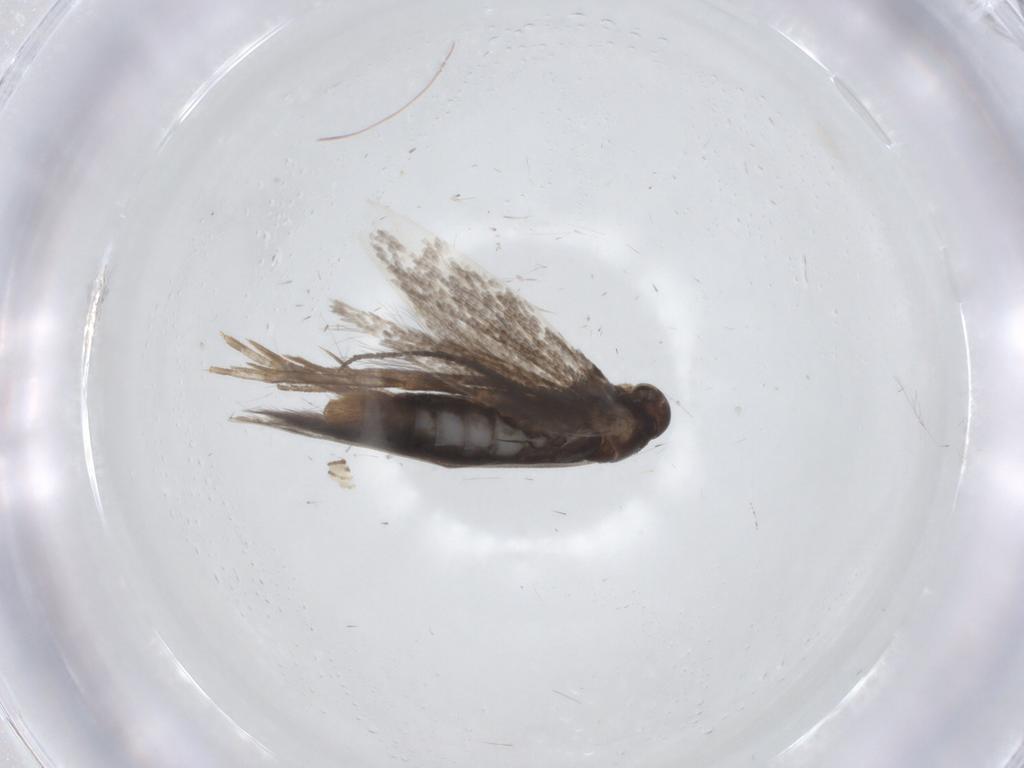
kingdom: Animalia
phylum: Arthropoda
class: Insecta
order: Lepidoptera
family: Elachistidae
